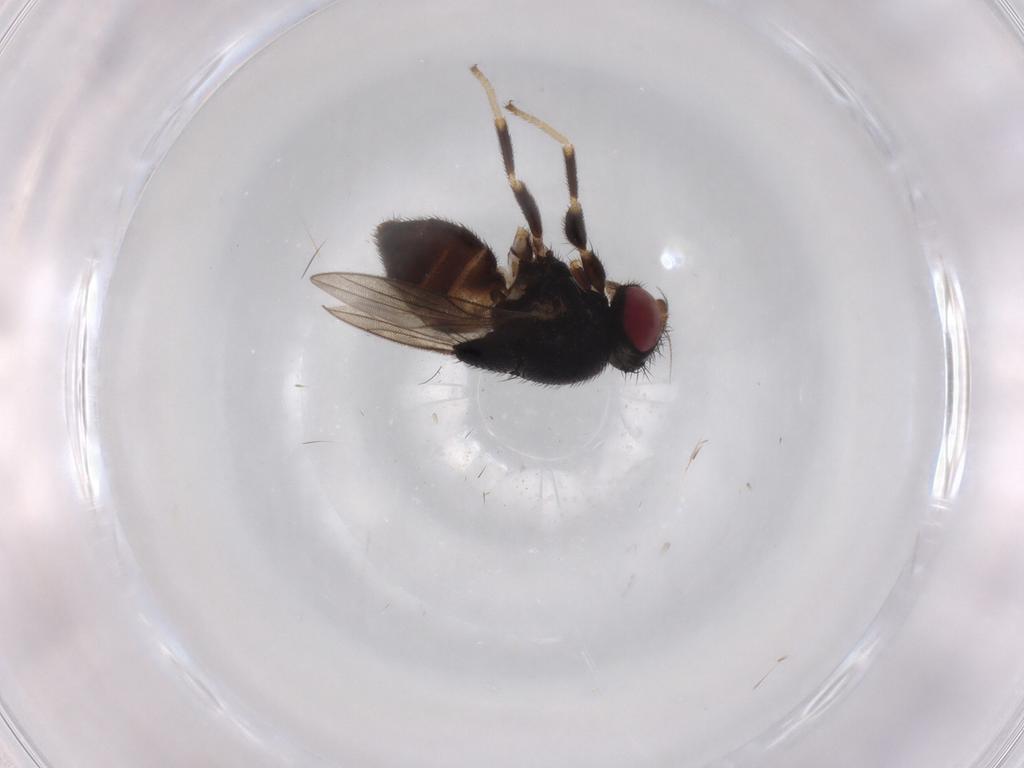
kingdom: Animalia
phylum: Arthropoda
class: Insecta
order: Diptera
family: Chloropidae
